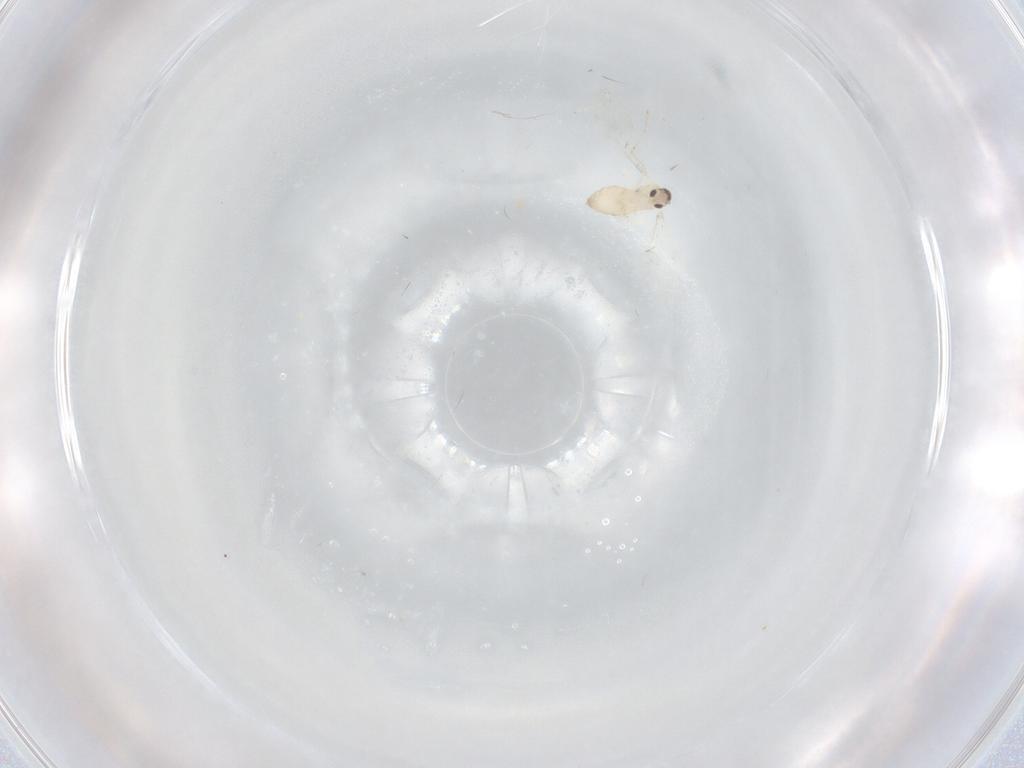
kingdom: Animalia
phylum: Arthropoda
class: Insecta
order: Diptera
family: Cecidomyiidae
